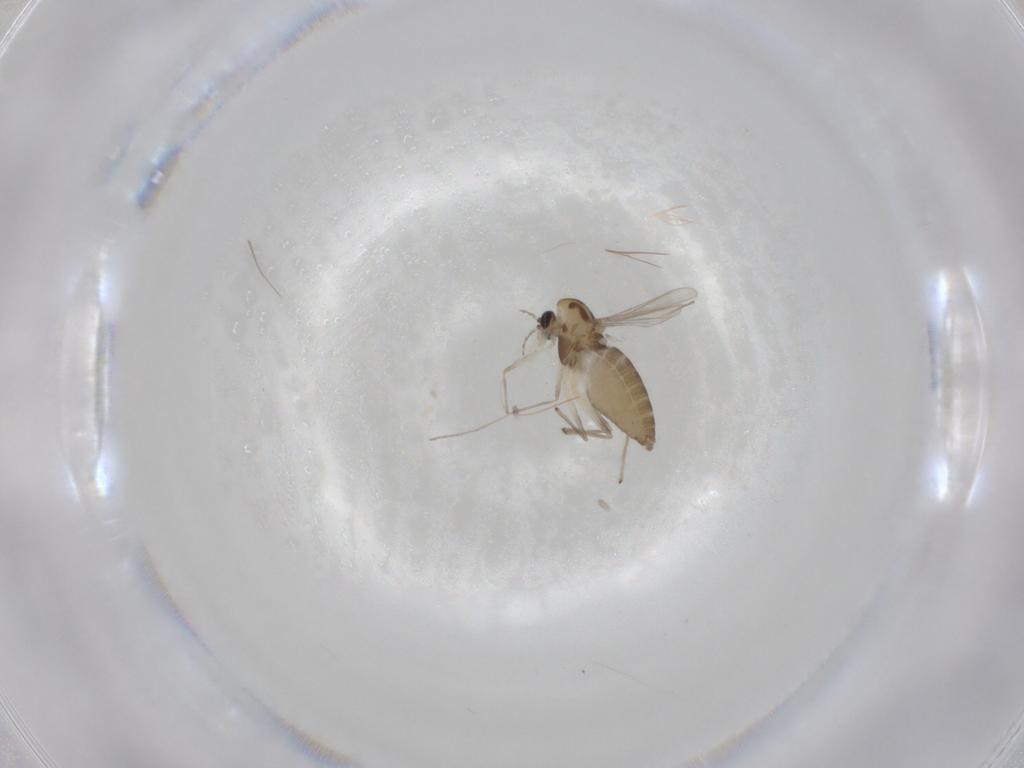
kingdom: Animalia
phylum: Arthropoda
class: Insecta
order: Diptera
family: Chironomidae
